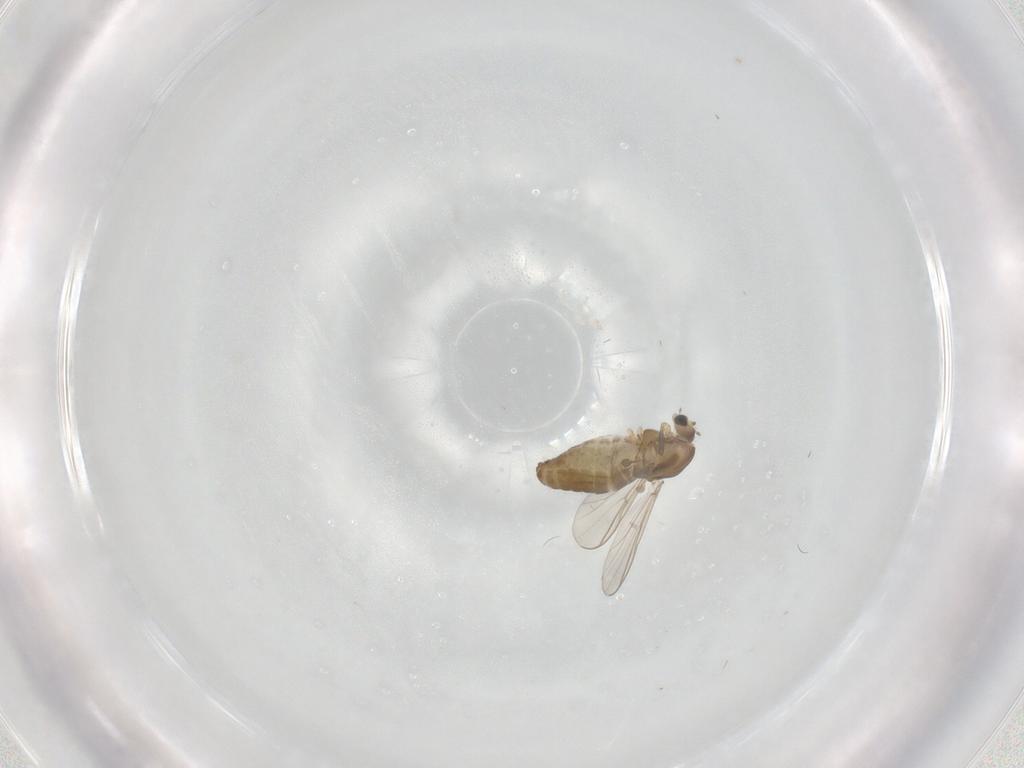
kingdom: Animalia
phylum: Arthropoda
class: Insecta
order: Diptera
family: Chironomidae
